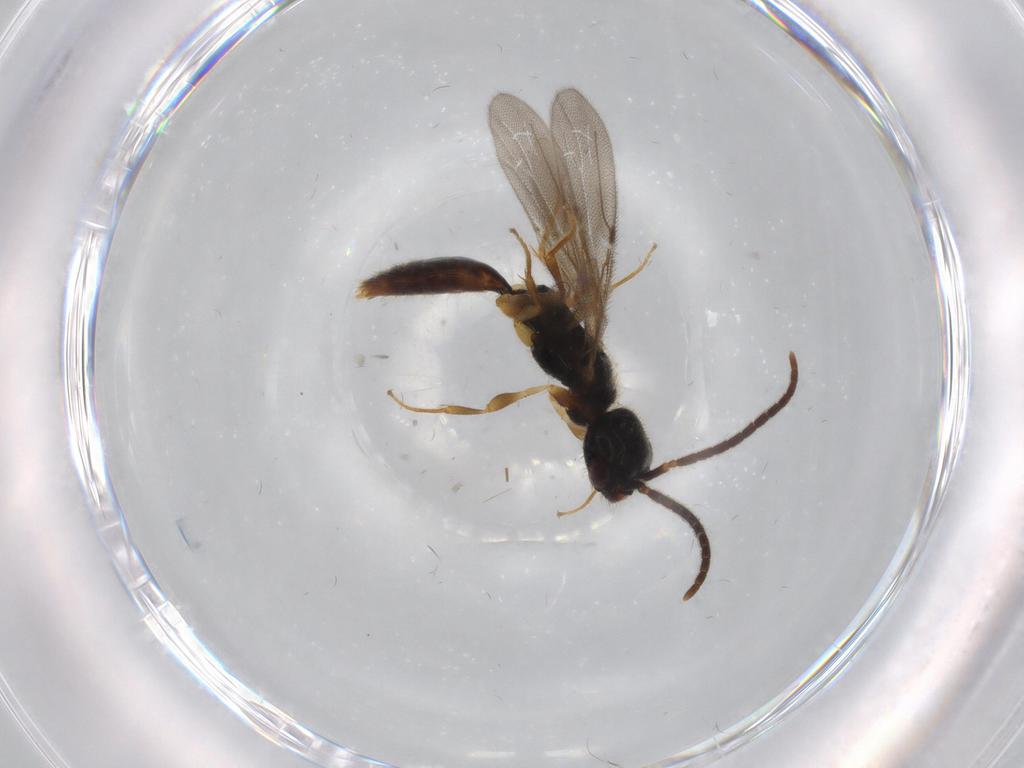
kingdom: Animalia
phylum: Arthropoda
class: Insecta
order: Hymenoptera
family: Bethylidae
